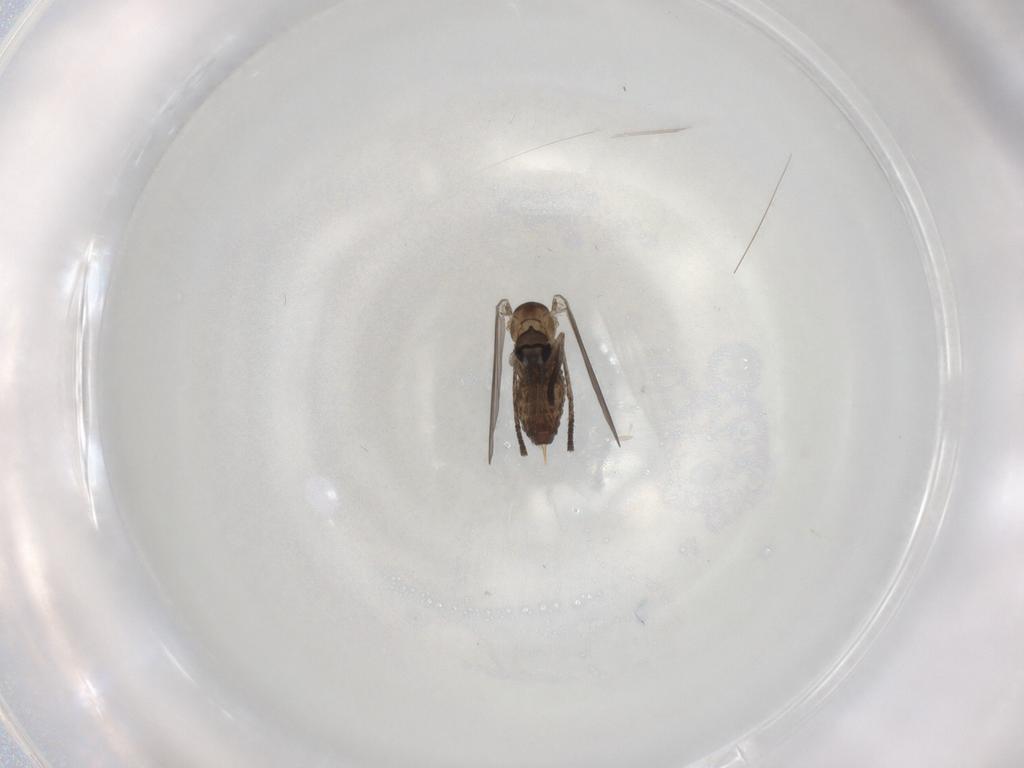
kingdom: Animalia
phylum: Arthropoda
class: Insecta
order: Diptera
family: Psychodidae
